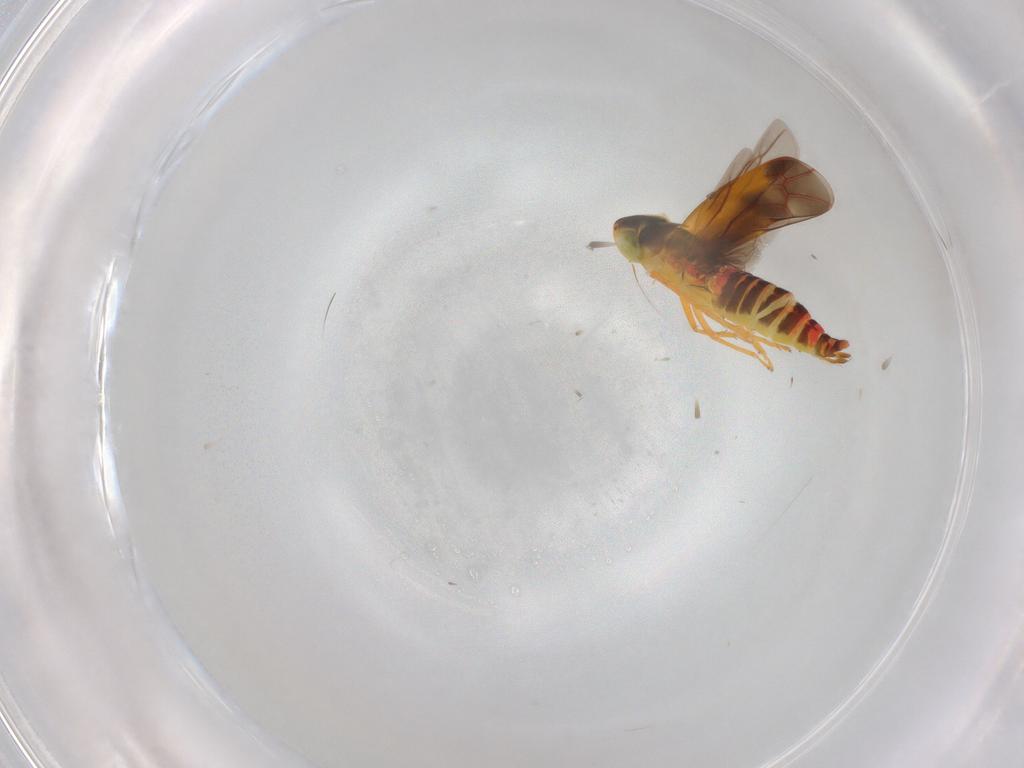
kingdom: Animalia
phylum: Arthropoda
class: Insecta
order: Hemiptera
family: Cicadellidae
